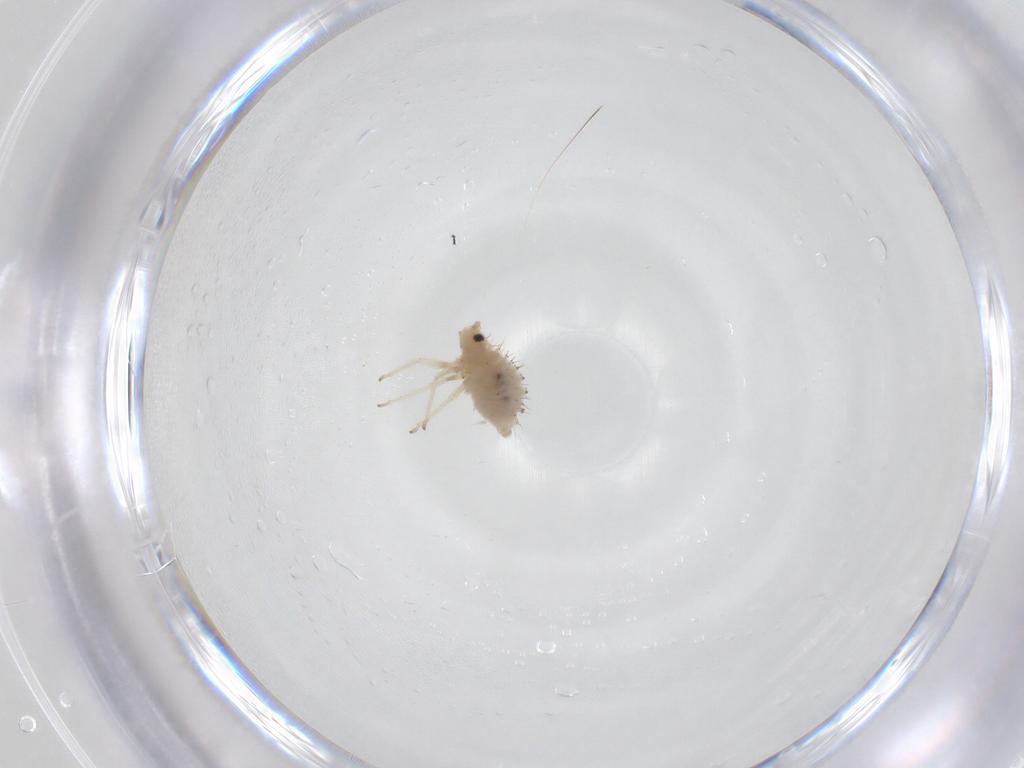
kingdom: Animalia
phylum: Arthropoda
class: Insecta
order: Hemiptera
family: Aphididae
